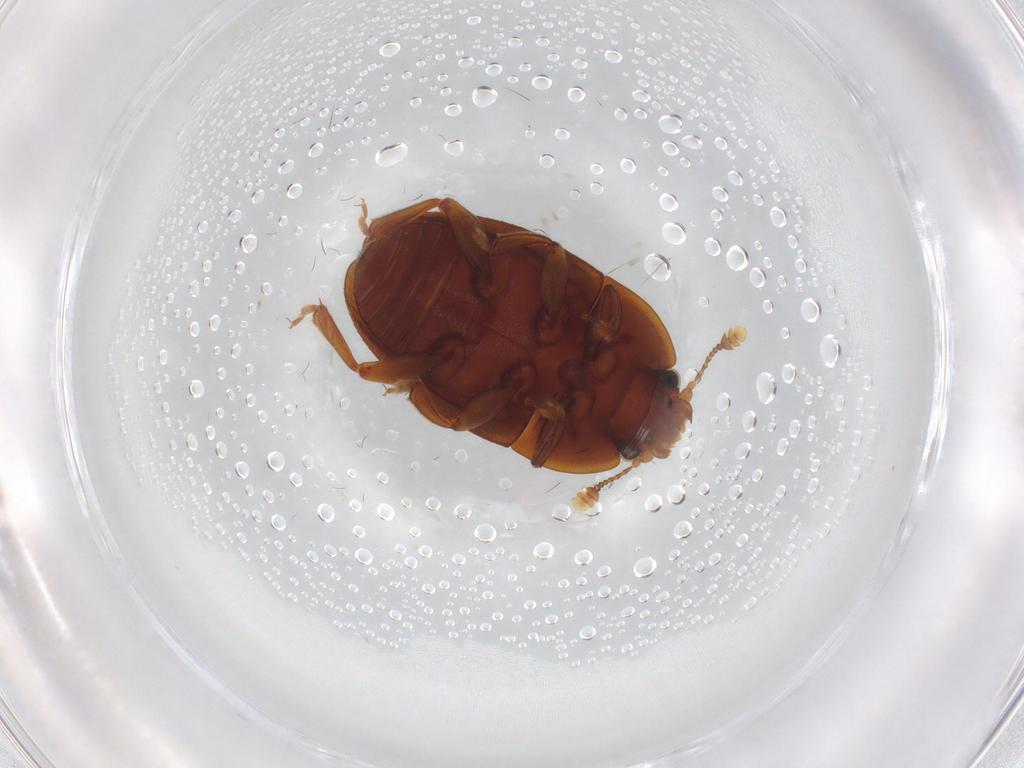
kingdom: Animalia
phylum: Arthropoda
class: Insecta
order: Coleoptera
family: Nitidulidae
